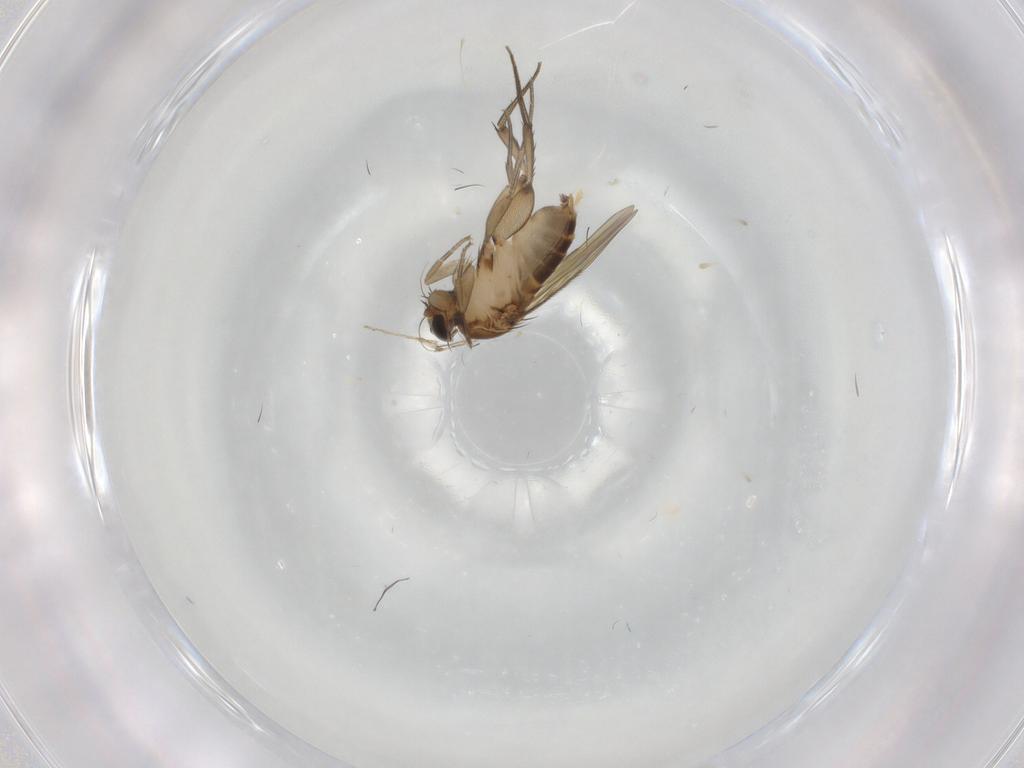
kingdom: Animalia
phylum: Arthropoda
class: Insecta
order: Diptera
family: Phoridae
